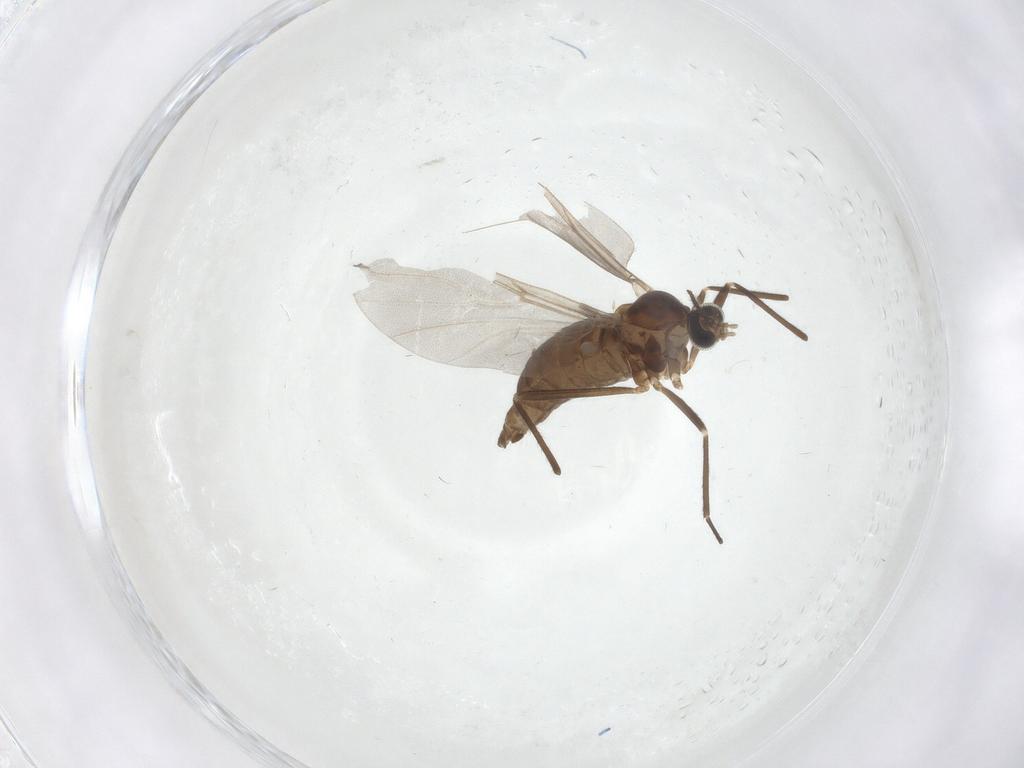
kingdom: Animalia
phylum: Arthropoda
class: Insecta
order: Diptera
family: Cecidomyiidae
